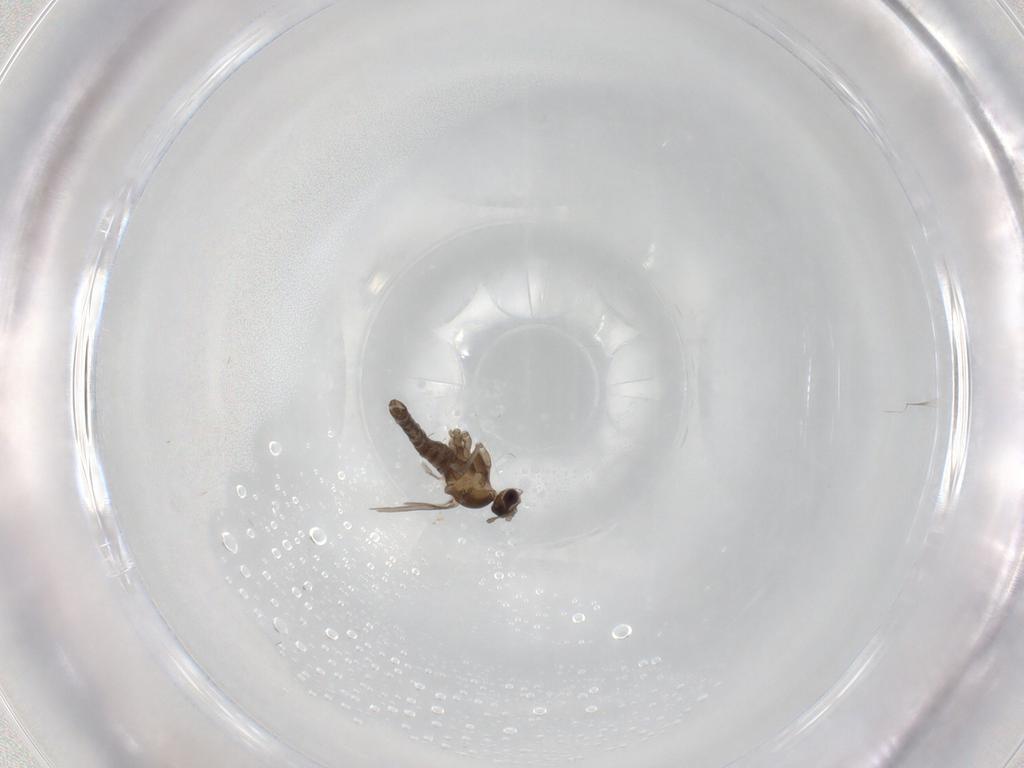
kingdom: Animalia
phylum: Arthropoda
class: Insecta
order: Diptera
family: Cecidomyiidae
